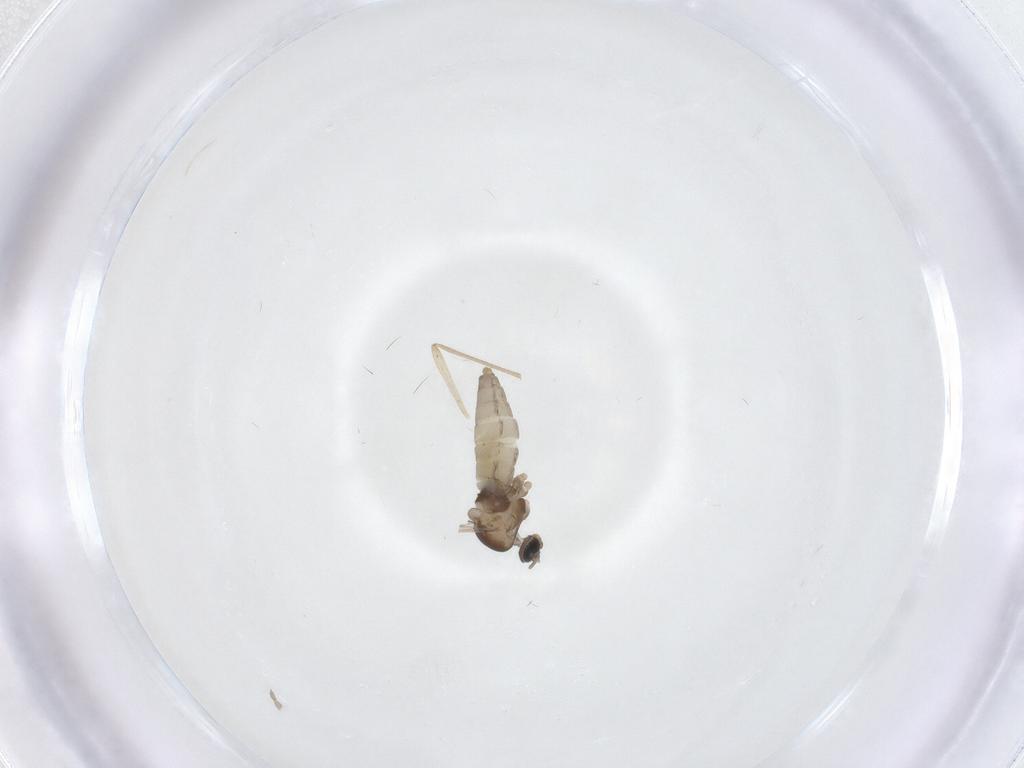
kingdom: Animalia
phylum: Arthropoda
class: Insecta
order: Diptera
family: Cecidomyiidae
